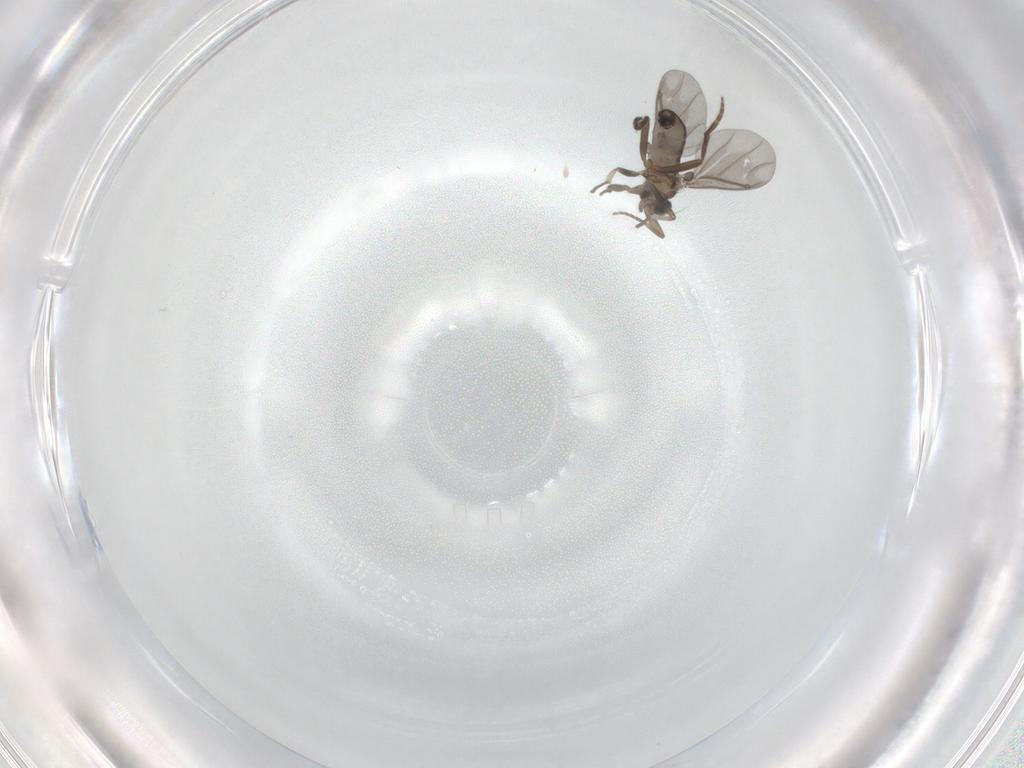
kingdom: Animalia
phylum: Arthropoda
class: Insecta
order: Diptera
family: Phoridae
